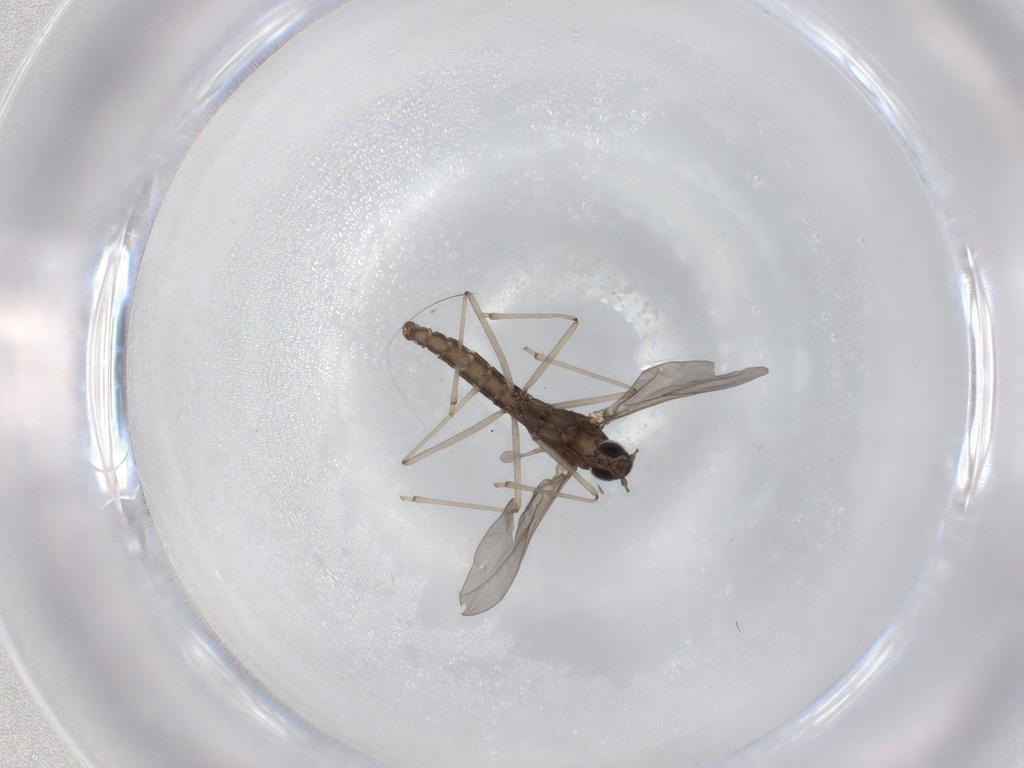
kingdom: Animalia
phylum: Arthropoda
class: Insecta
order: Diptera
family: Cecidomyiidae
